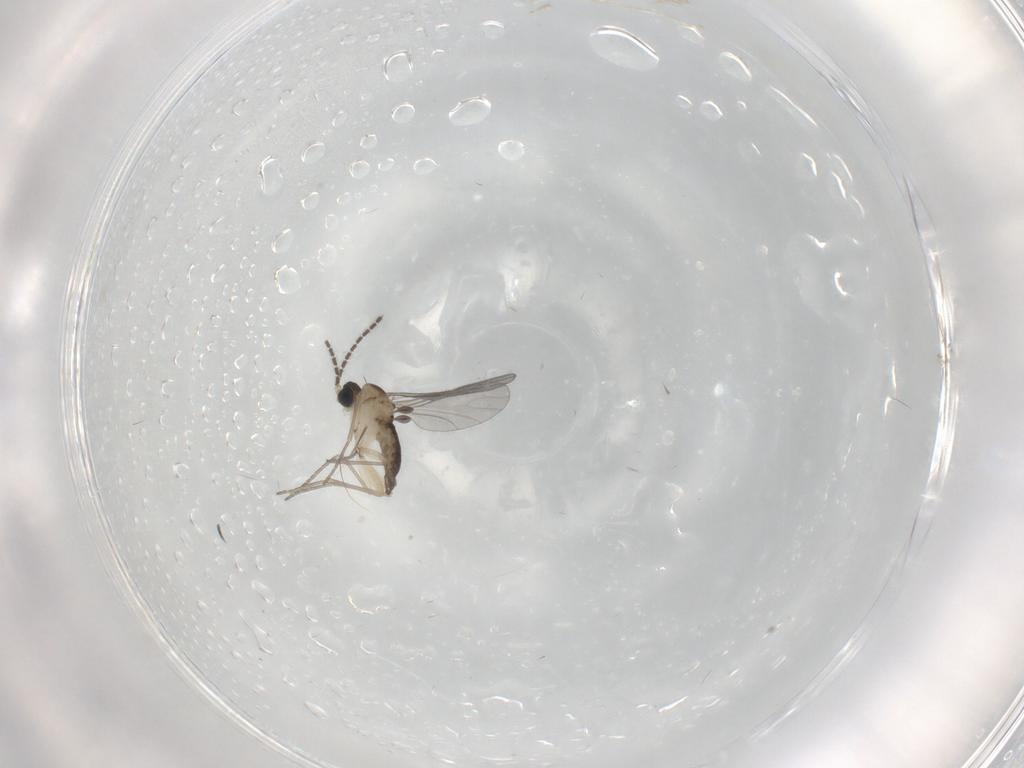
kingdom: Animalia
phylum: Arthropoda
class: Insecta
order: Diptera
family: Sciaridae
